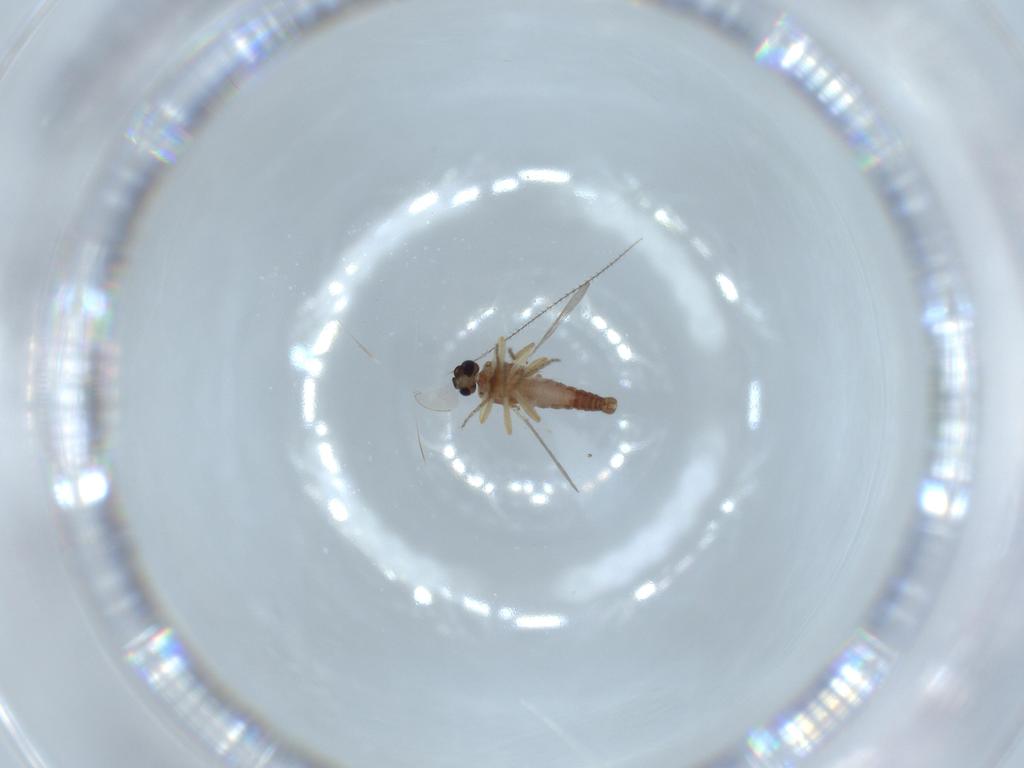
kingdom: Animalia
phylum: Arthropoda
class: Insecta
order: Diptera
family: Ceratopogonidae
